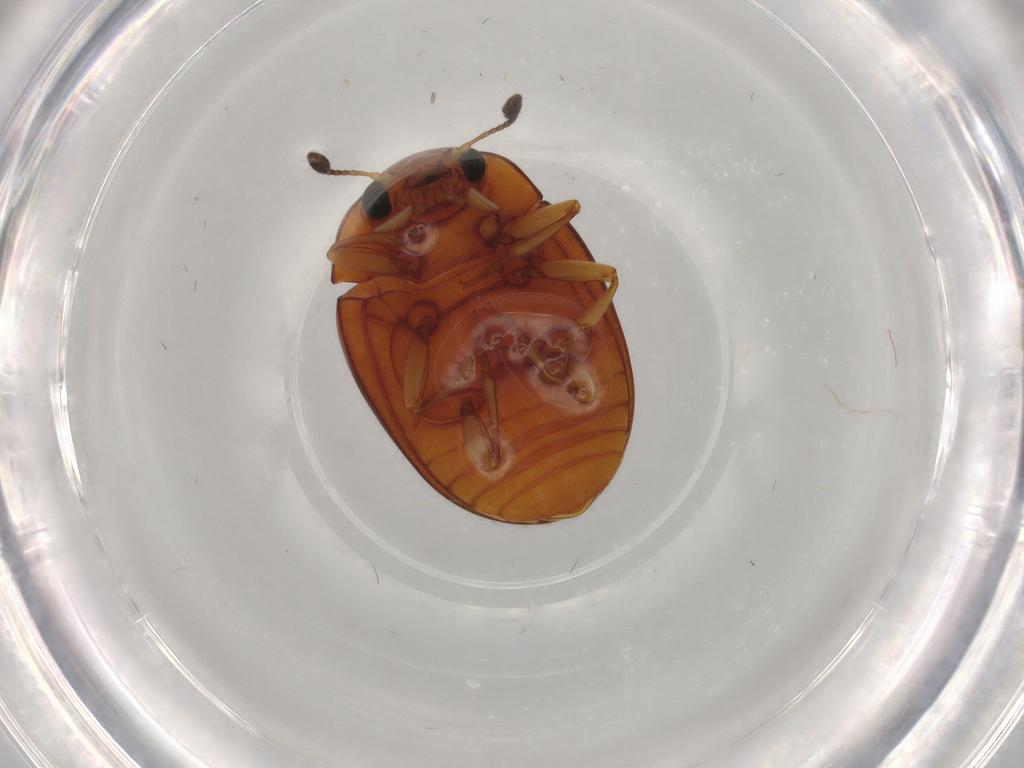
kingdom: Animalia
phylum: Arthropoda
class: Insecta
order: Coleoptera
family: Erotylidae
